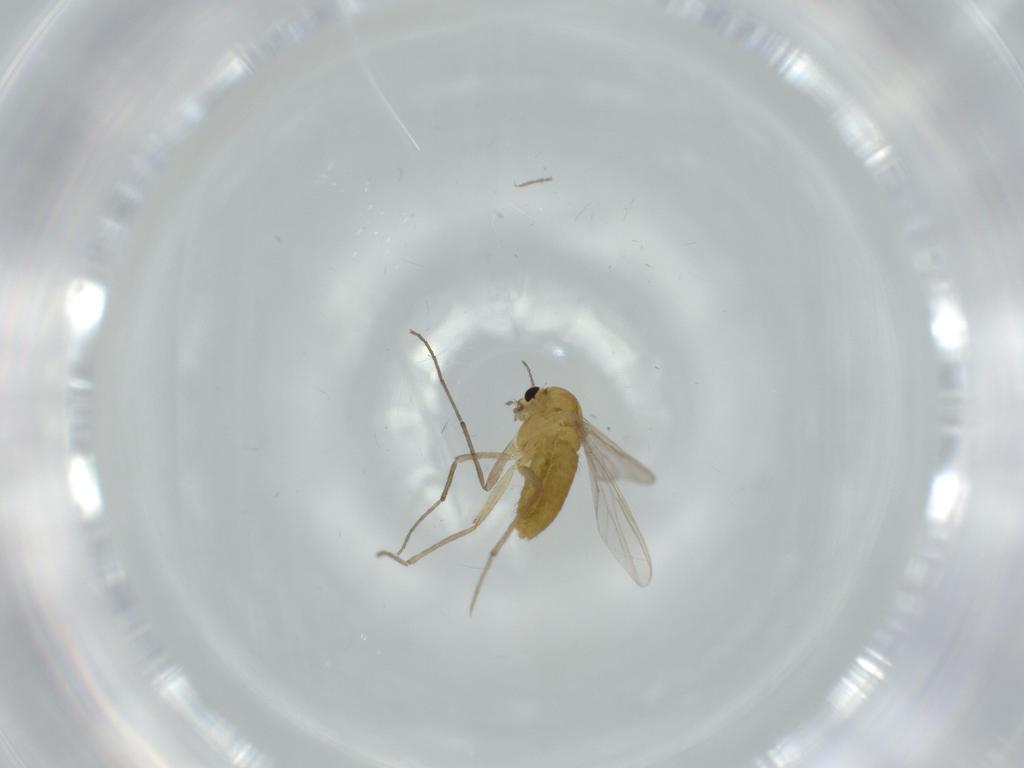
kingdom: Animalia
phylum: Arthropoda
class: Insecta
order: Diptera
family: Chironomidae
